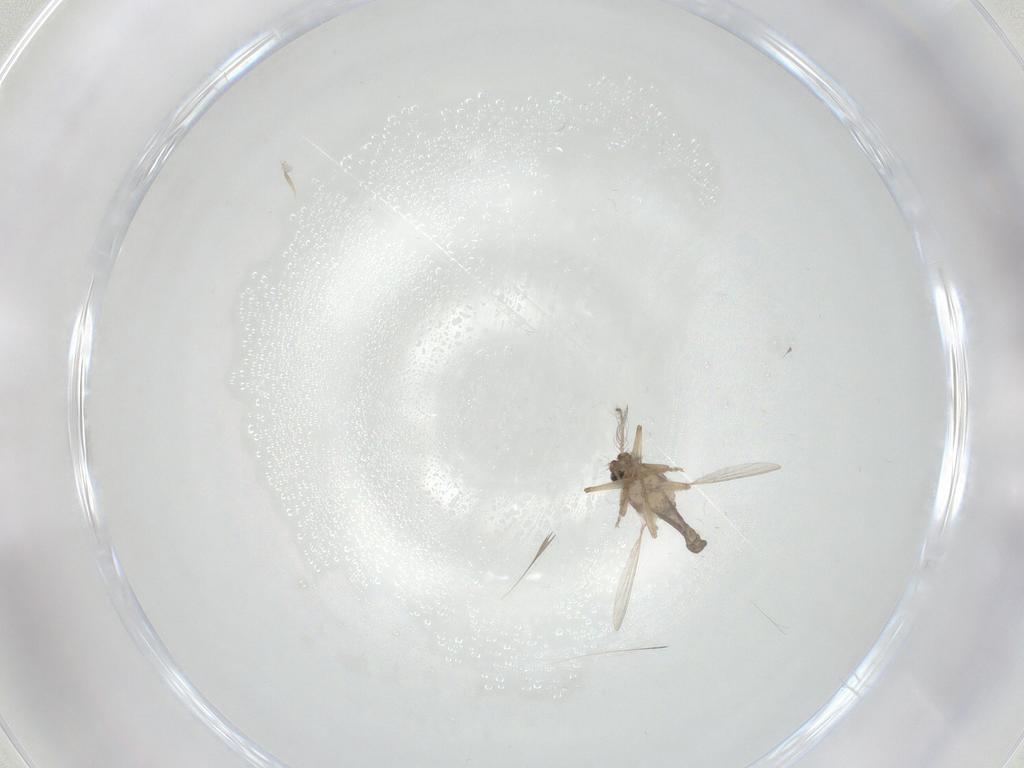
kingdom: Animalia
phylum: Arthropoda
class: Insecta
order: Diptera
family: Ceratopogonidae
